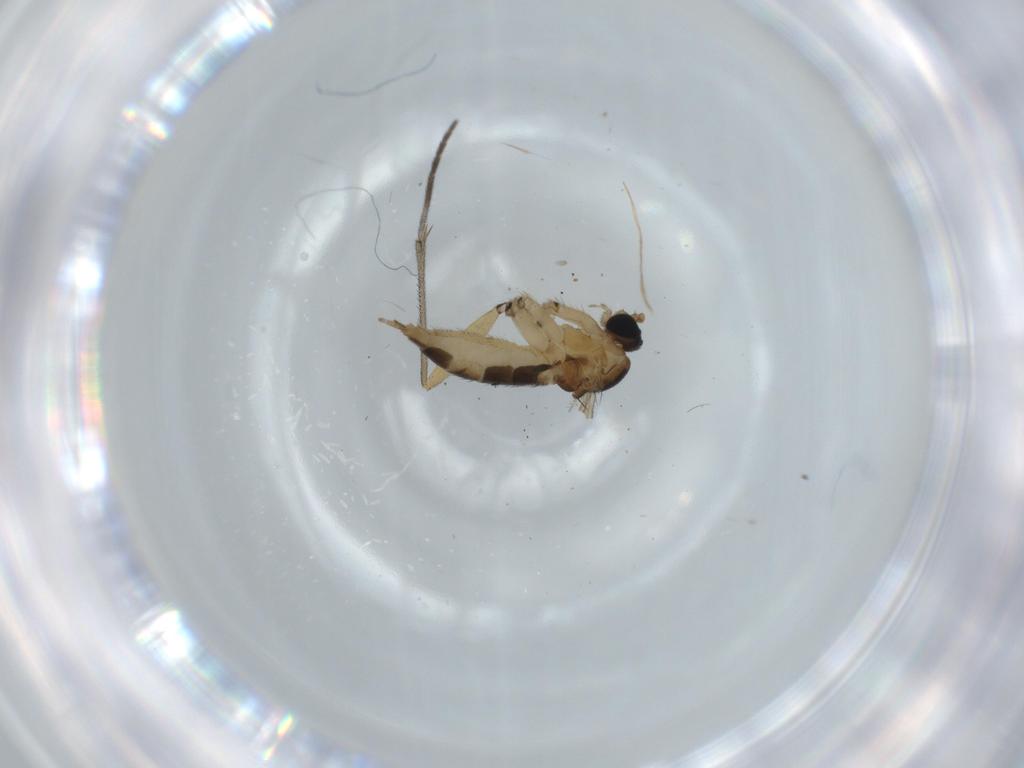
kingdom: Animalia
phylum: Arthropoda
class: Insecta
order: Diptera
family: Sciaridae
